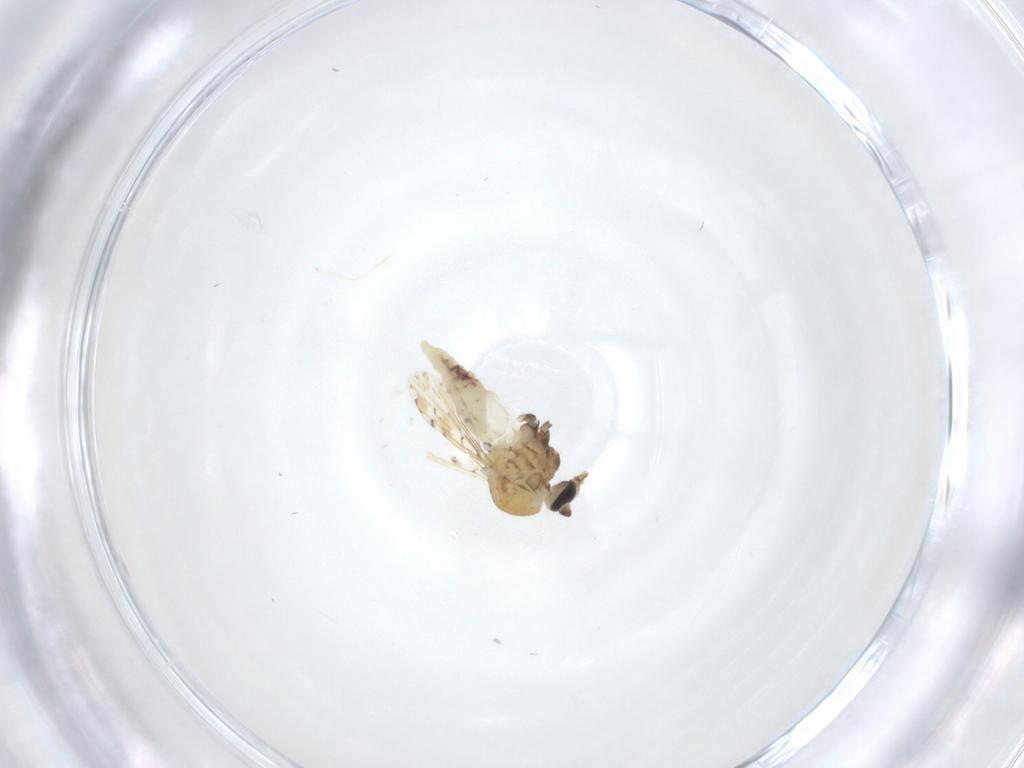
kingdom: Animalia
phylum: Arthropoda
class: Insecta
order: Diptera
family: Ceratopogonidae
